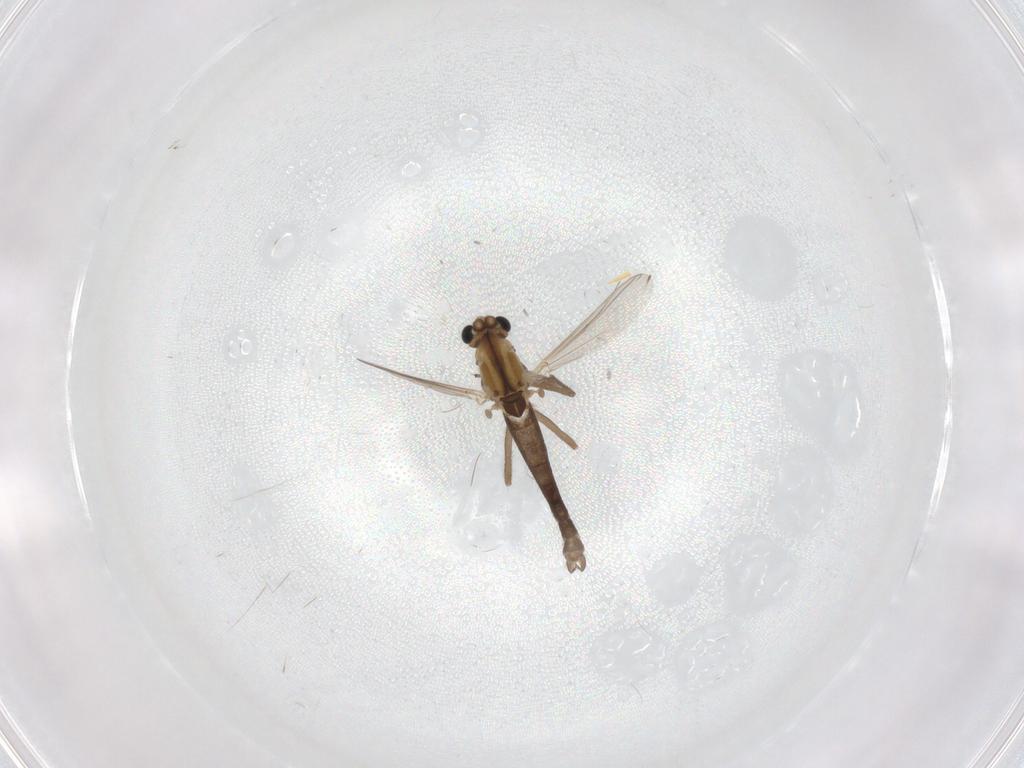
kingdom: Animalia
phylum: Arthropoda
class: Insecta
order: Diptera
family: Chironomidae
